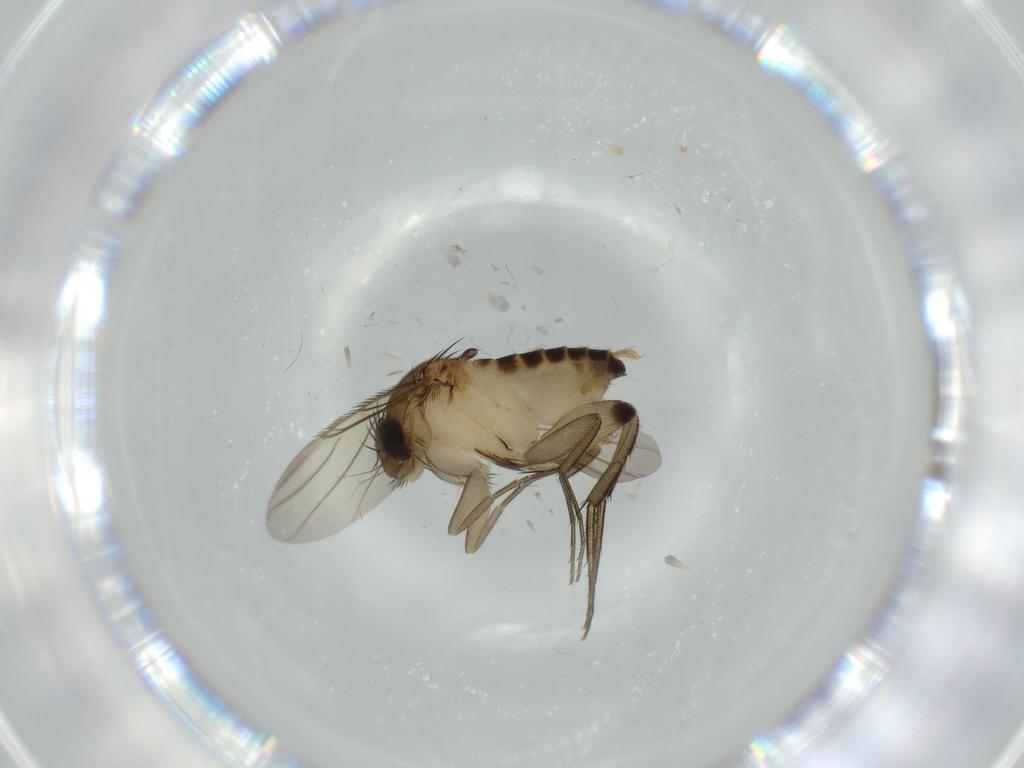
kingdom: Animalia
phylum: Arthropoda
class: Insecta
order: Diptera
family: Phoridae
